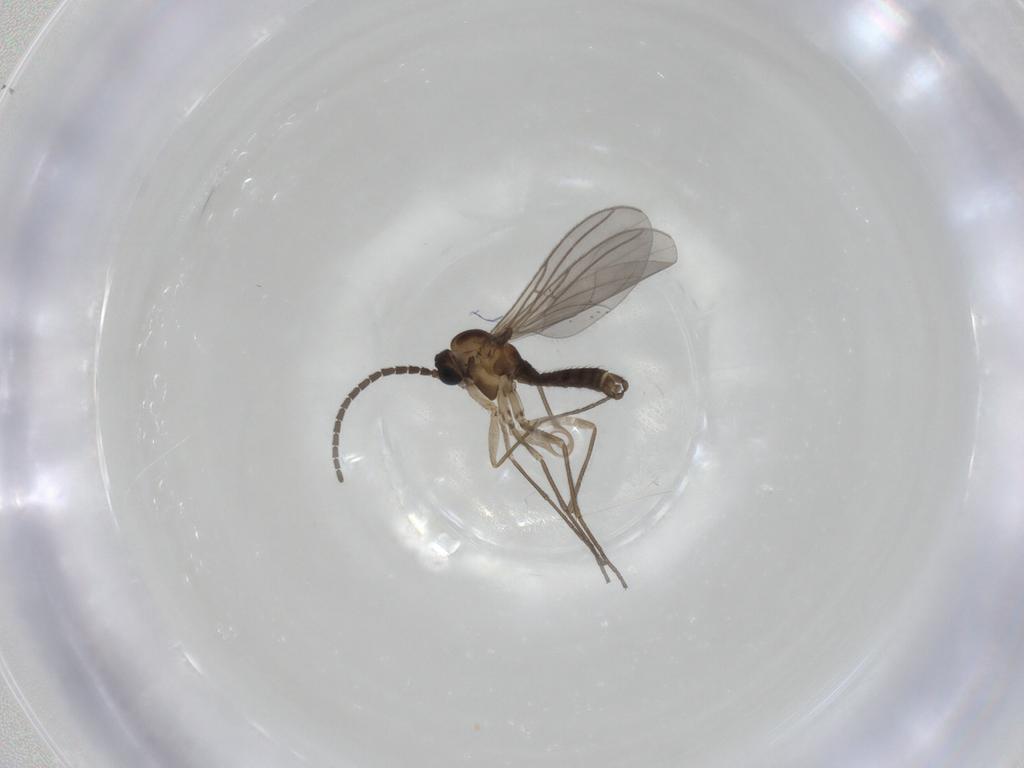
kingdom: Animalia
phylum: Arthropoda
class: Insecta
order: Diptera
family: Sciaridae
